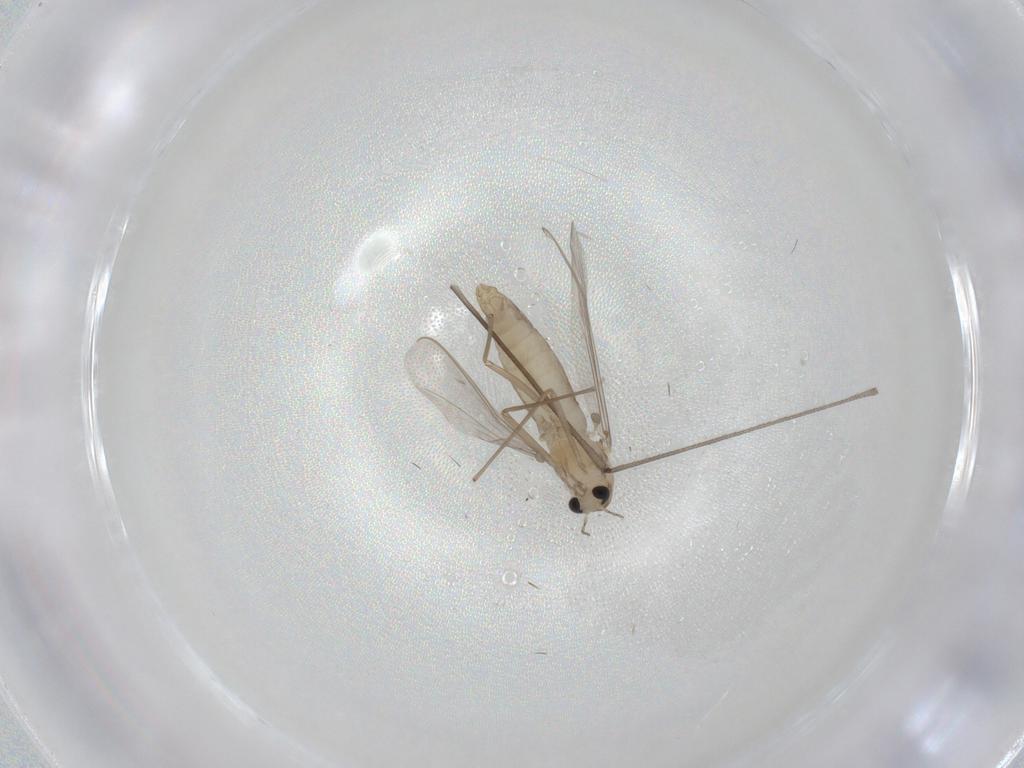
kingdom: Animalia
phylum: Arthropoda
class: Insecta
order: Diptera
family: Chironomidae
